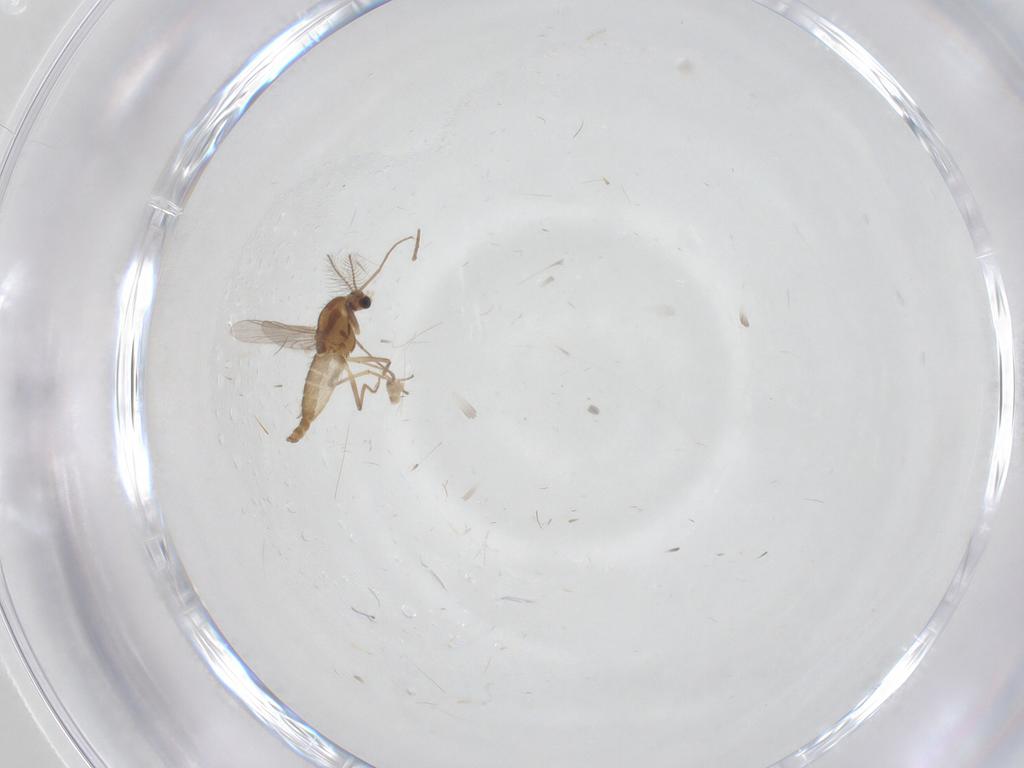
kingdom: Animalia
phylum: Arthropoda
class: Insecta
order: Diptera
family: Chironomidae
